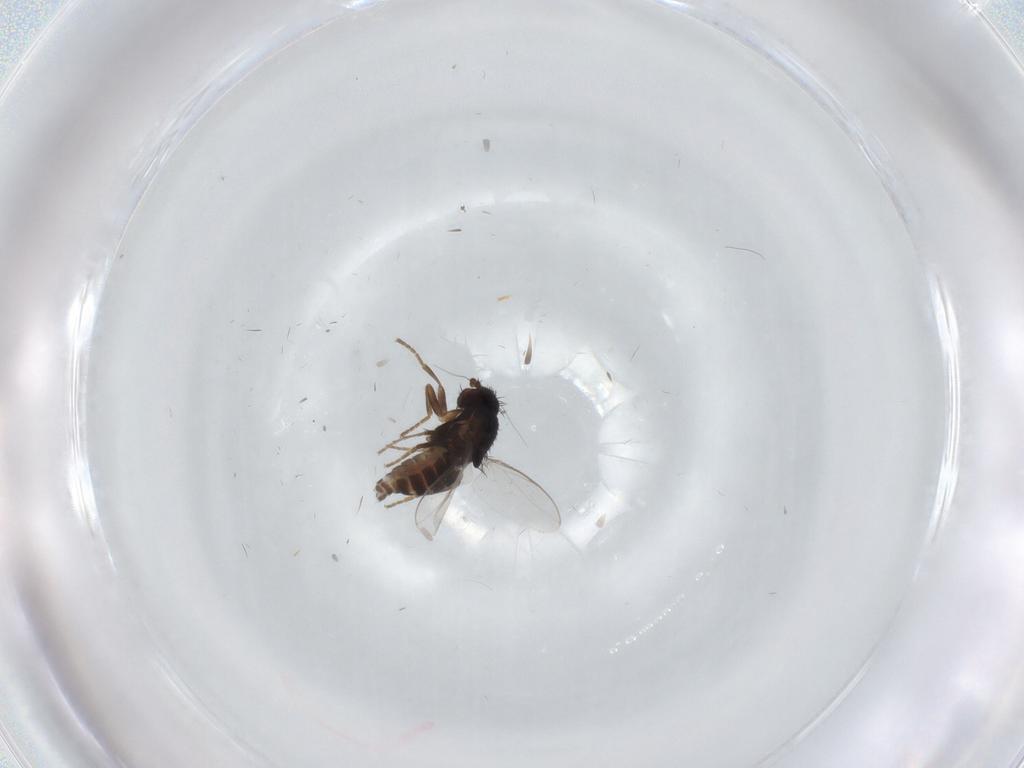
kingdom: Animalia
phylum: Arthropoda
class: Insecta
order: Diptera
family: Sphaeroceridae
